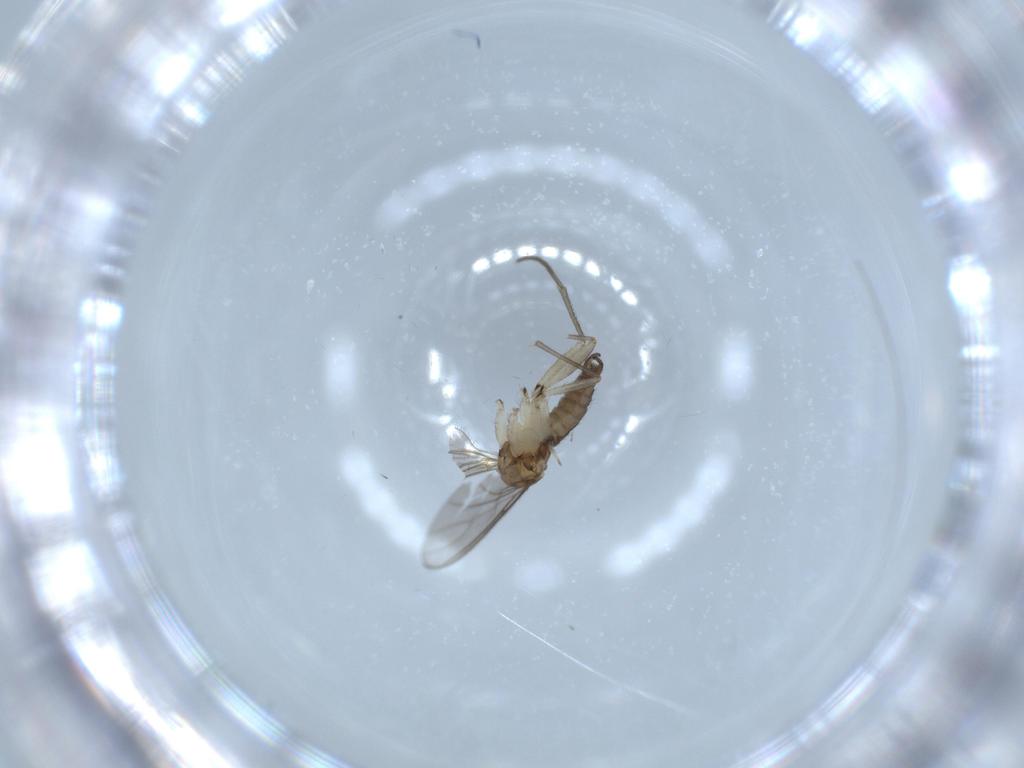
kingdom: Animalia
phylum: Arthropoda
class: Insecta
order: Diptera
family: Sciaridae
